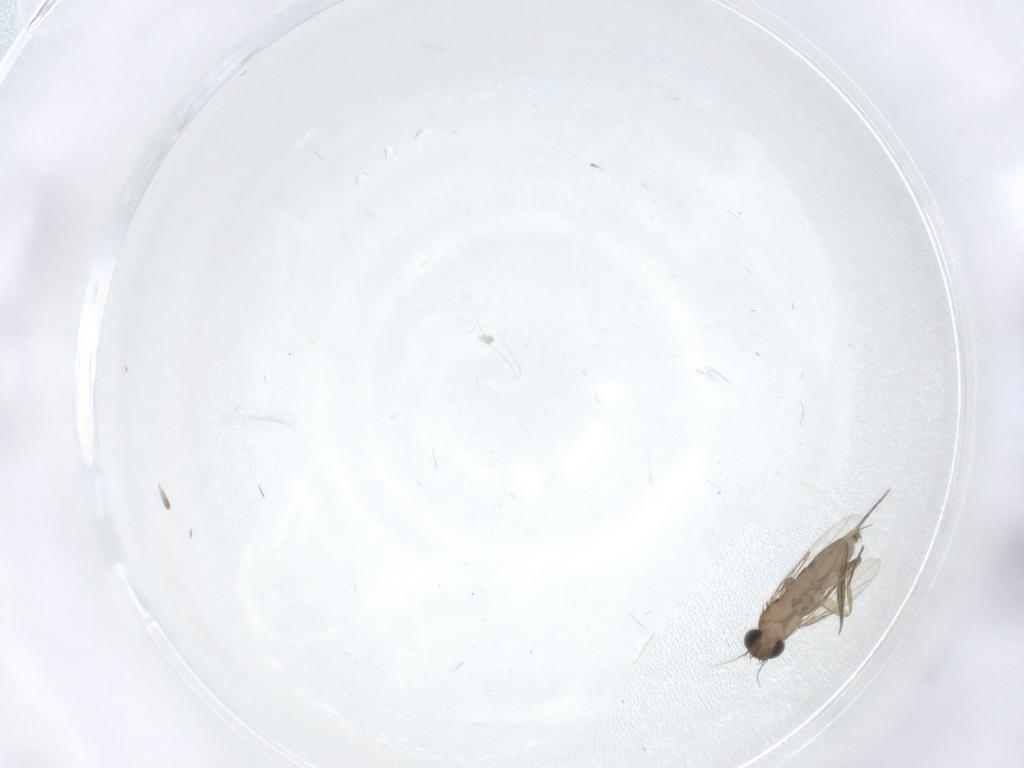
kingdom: Animalia
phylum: Arthropoda
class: Insecta
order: Diptera
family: Phoridae
